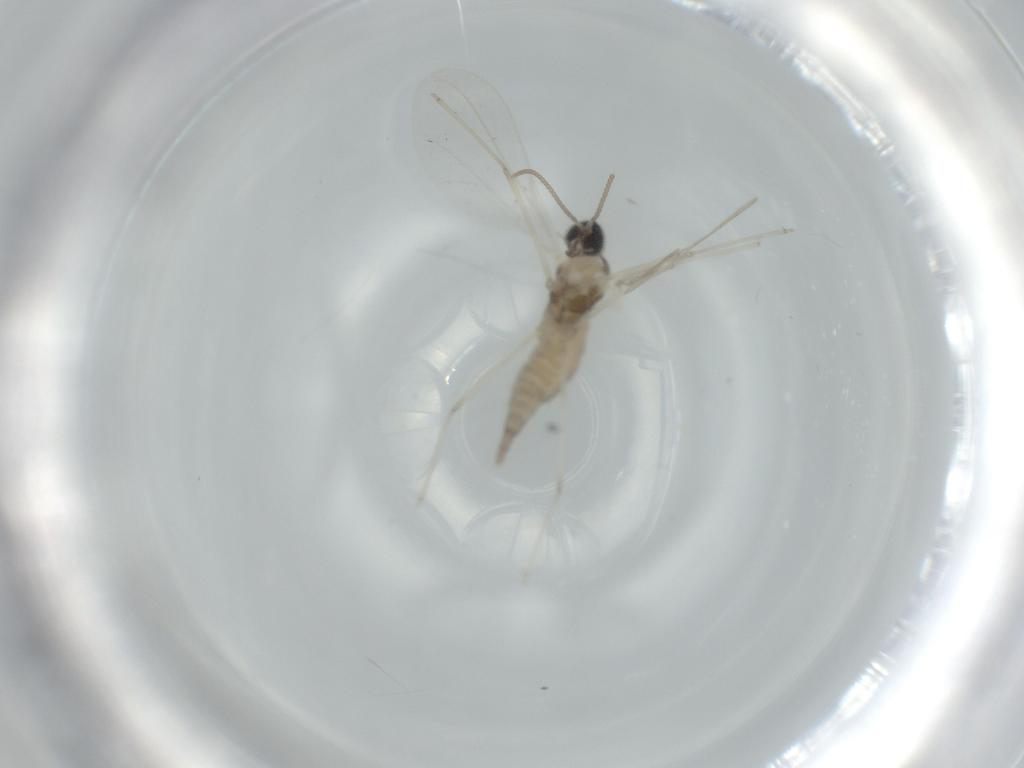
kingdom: Animalia
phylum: Arthropoda
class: Insecta
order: Diptera
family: Cecidomyiidae
